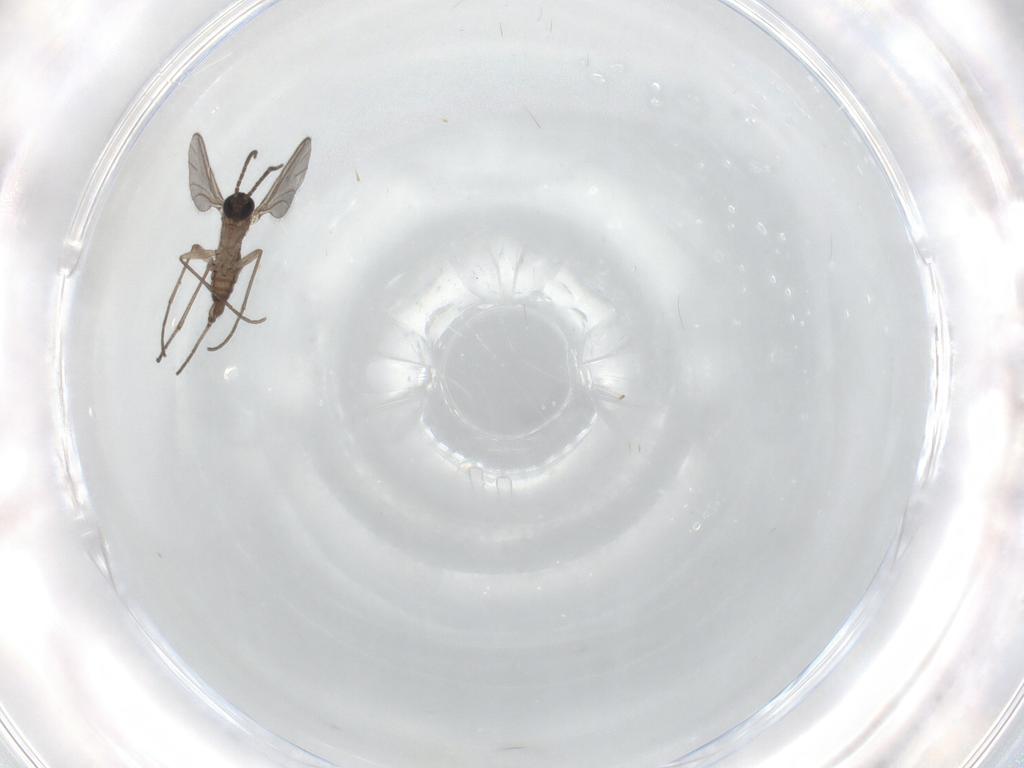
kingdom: Animalia
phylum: Arthropoda
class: Insecta
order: Diptera
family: Sciaridae
